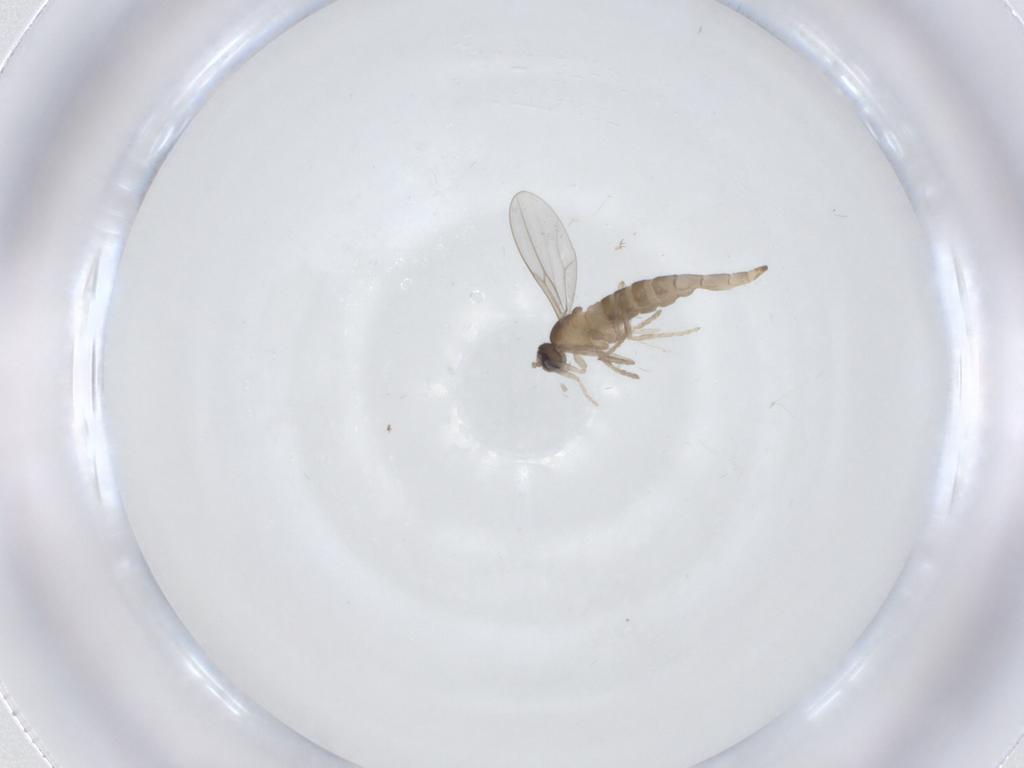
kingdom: Animalia
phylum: Arthropoda
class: Insecta
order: Diptera
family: Cecidomyiidae
